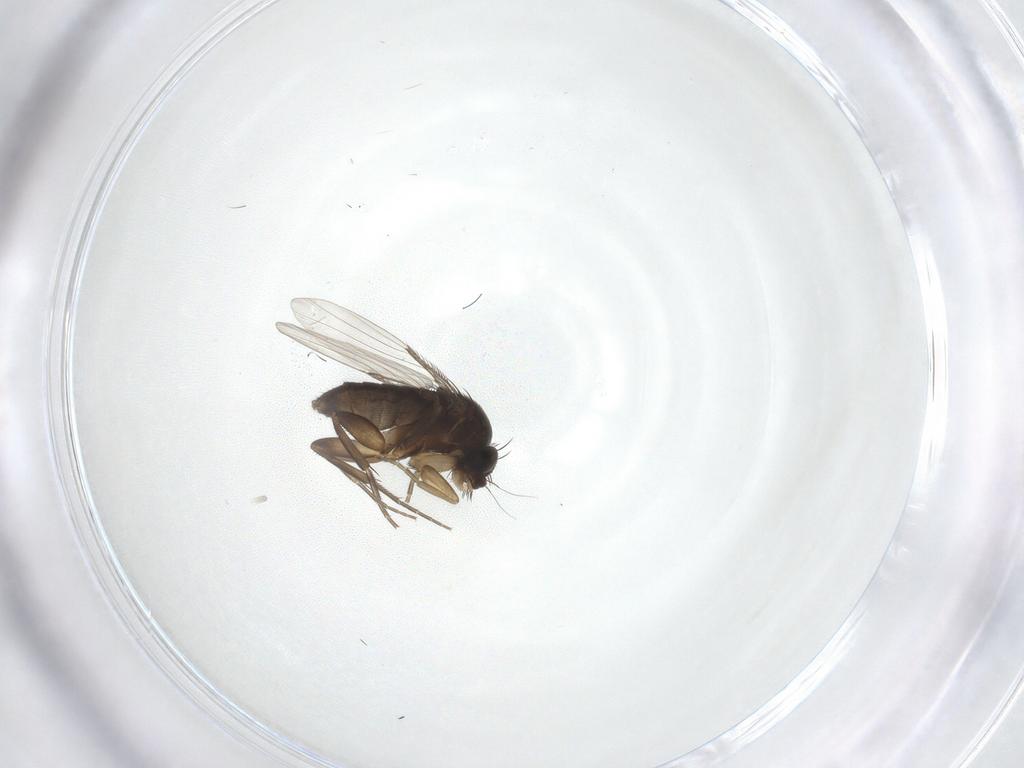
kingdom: Animalia
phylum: Arthropoda
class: Insecta
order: Diptera
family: Phoridae
